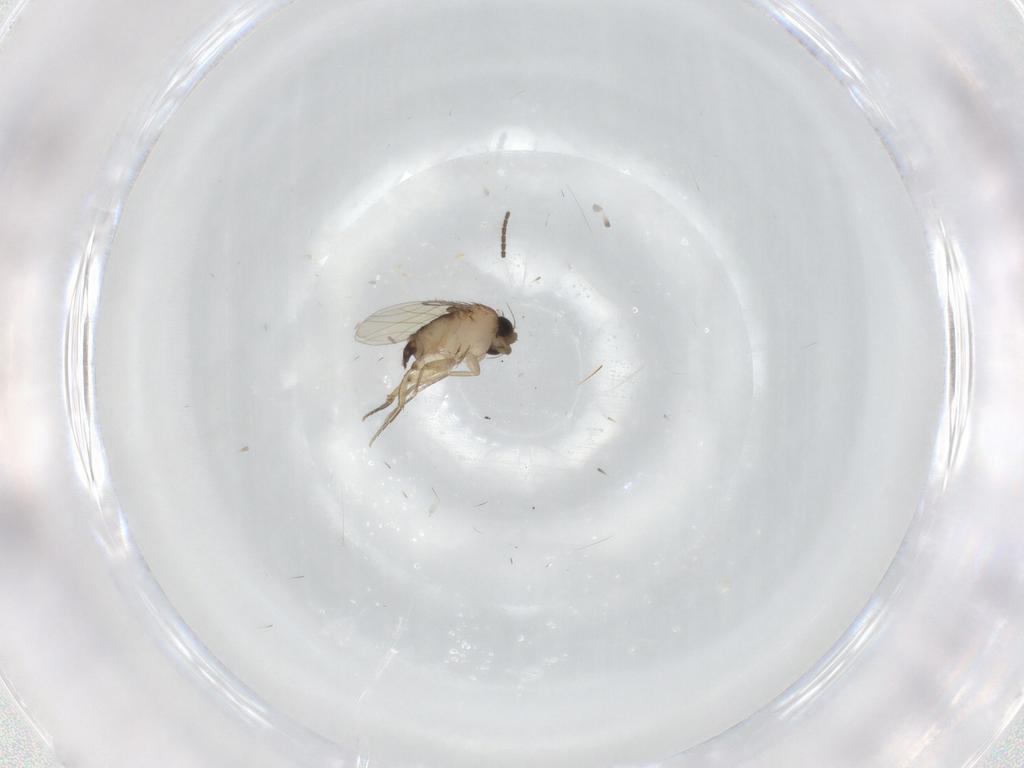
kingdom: Animalia
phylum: Arthropoda
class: Insecta
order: Diptera
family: Phoridae
